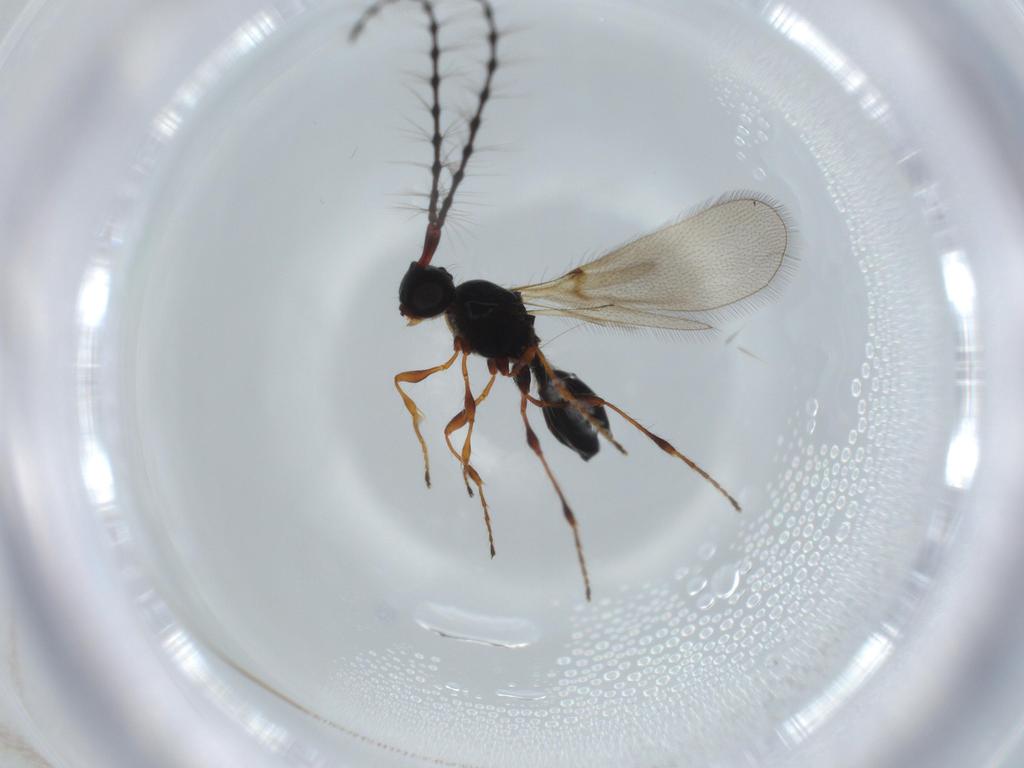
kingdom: Animalia
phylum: Arthropoda
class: Insecta
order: Hymenoptera
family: Diapriidae
